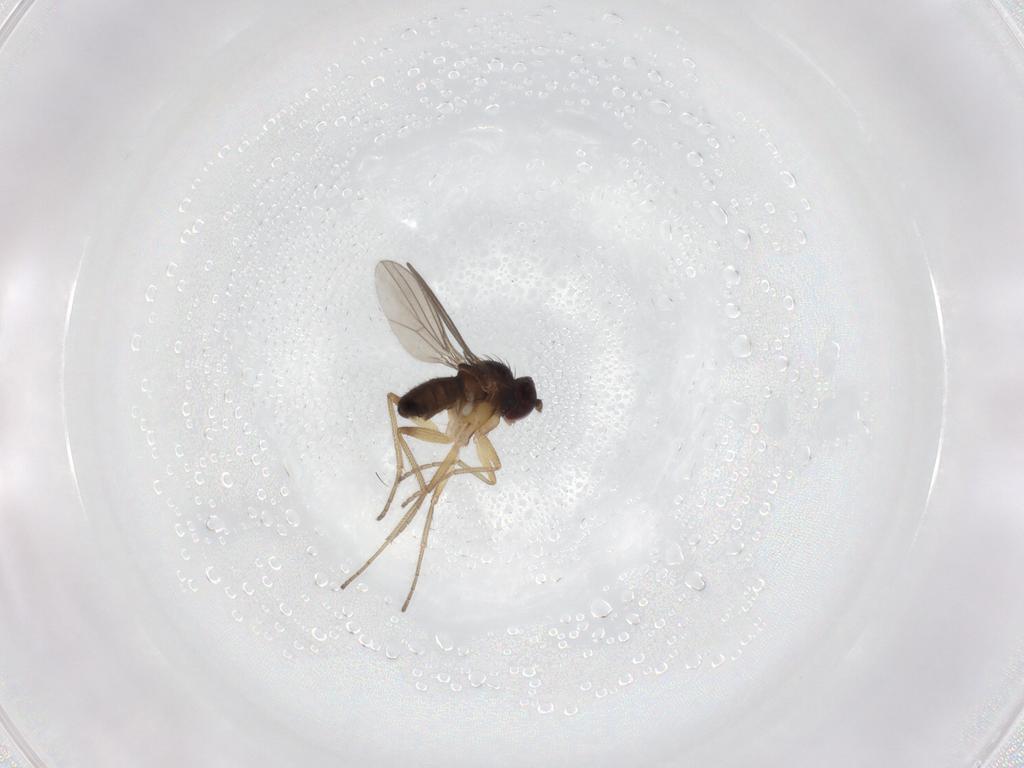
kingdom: Animalia
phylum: Arthropoda
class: Insecta
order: Diptera
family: Dolichopodidae
